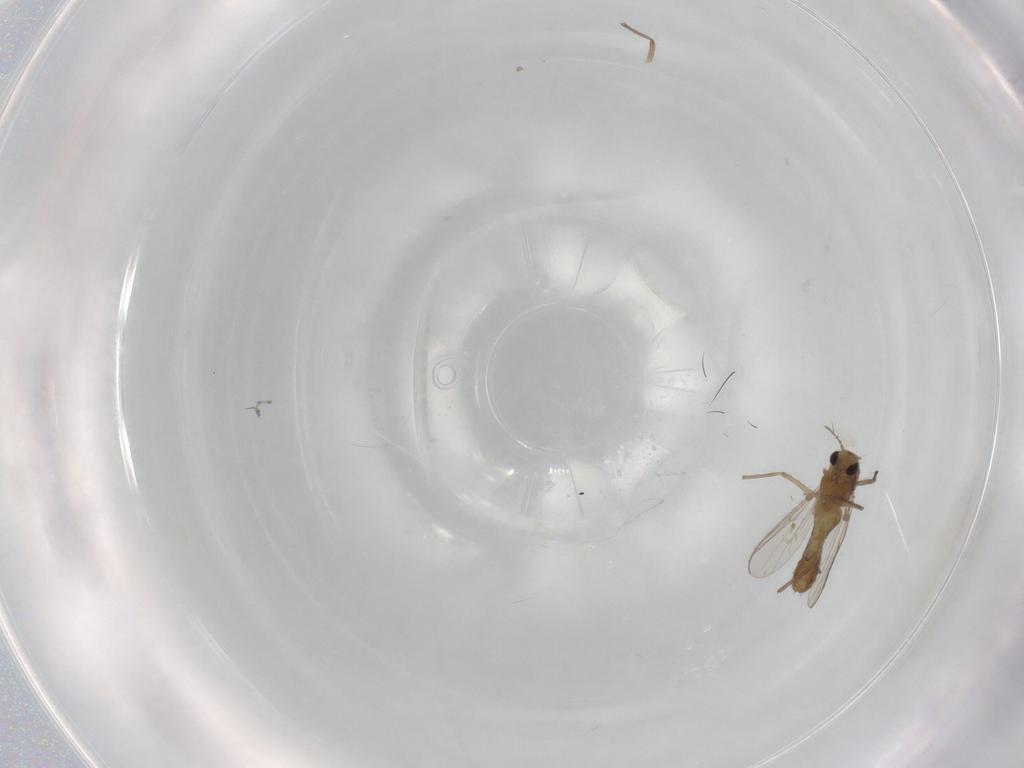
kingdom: Animalia
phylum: Arthropoda
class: Insecta
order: Diptera
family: Chironomidae
